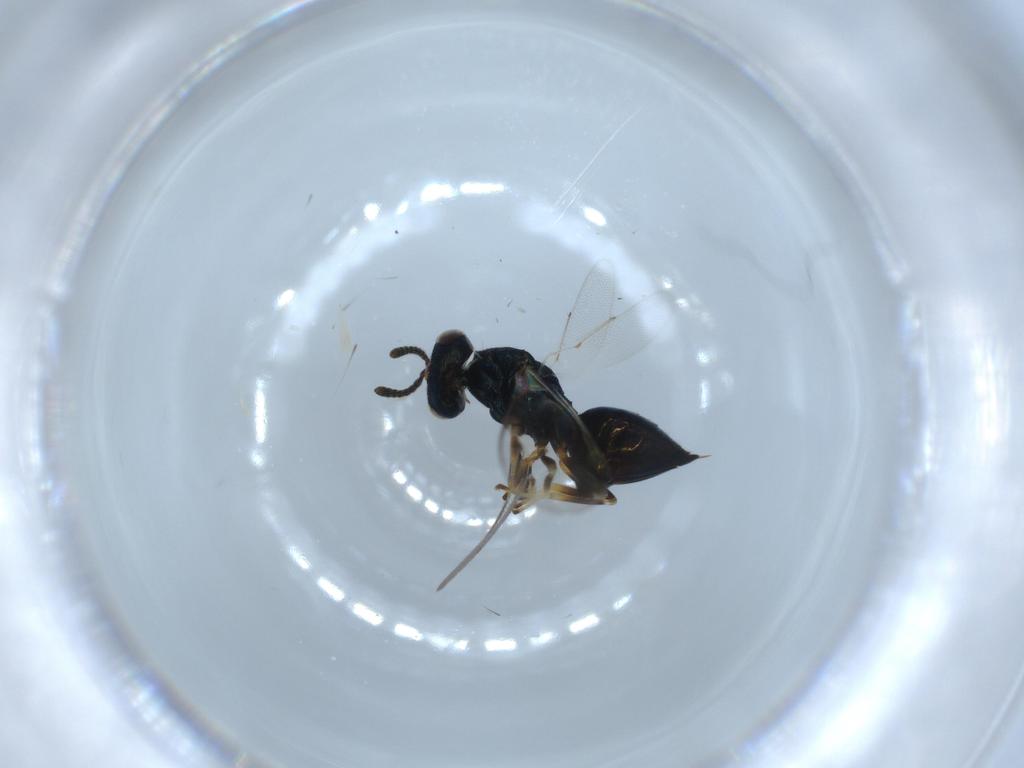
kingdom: Animalia
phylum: Arthropoda
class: Insecta
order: Hymenoptera
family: Pteromalidae
